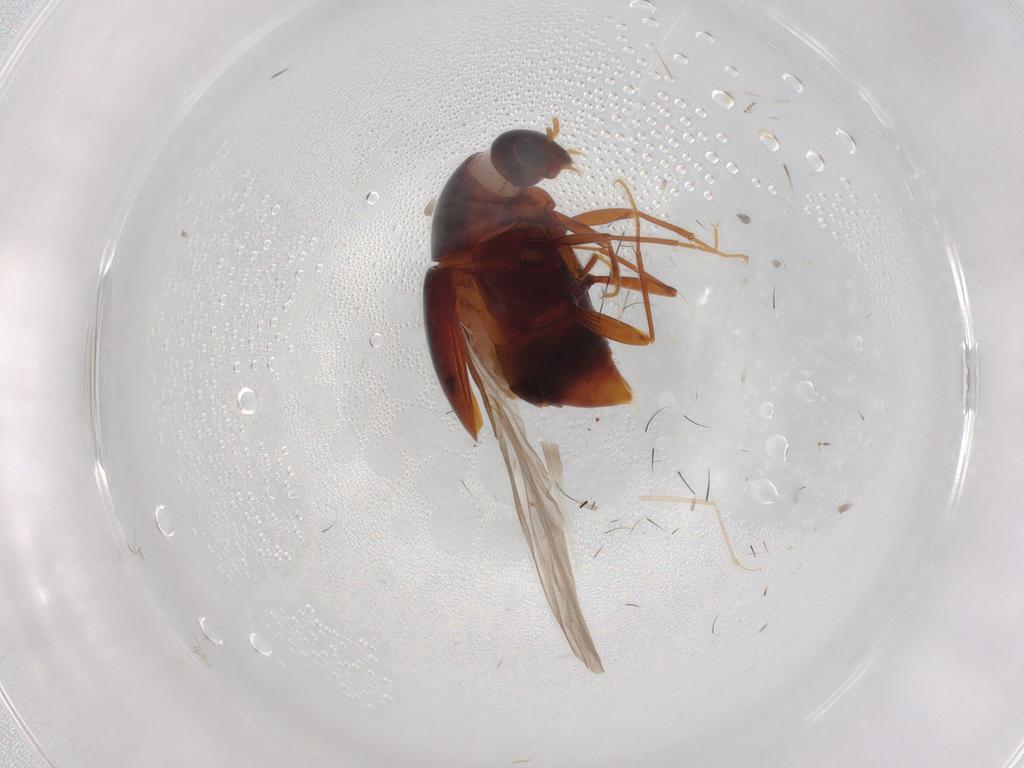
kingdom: Animalia
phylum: Arthropoda
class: Insecta
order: Coleoptera
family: Staphylinidae
